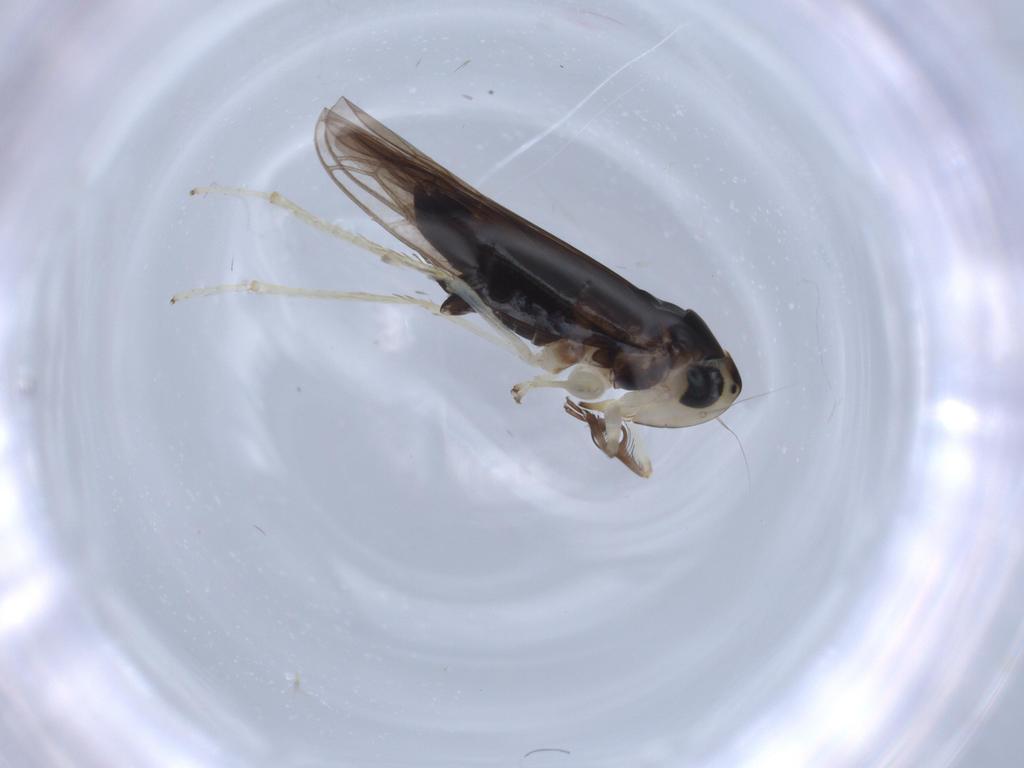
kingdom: Animalia
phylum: Arthropoda
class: Insecta
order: Hemiptera
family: Cicadellidae
